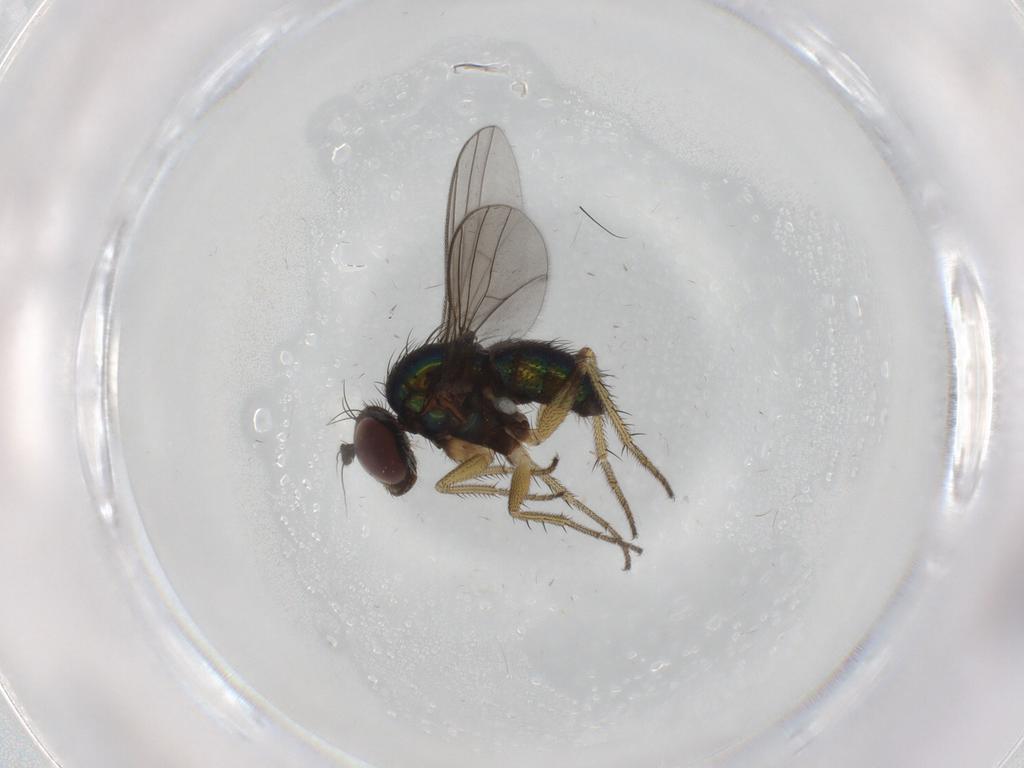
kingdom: Animalia
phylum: Arthropoda
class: Insecta
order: Diptera
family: Dolichopodidae
